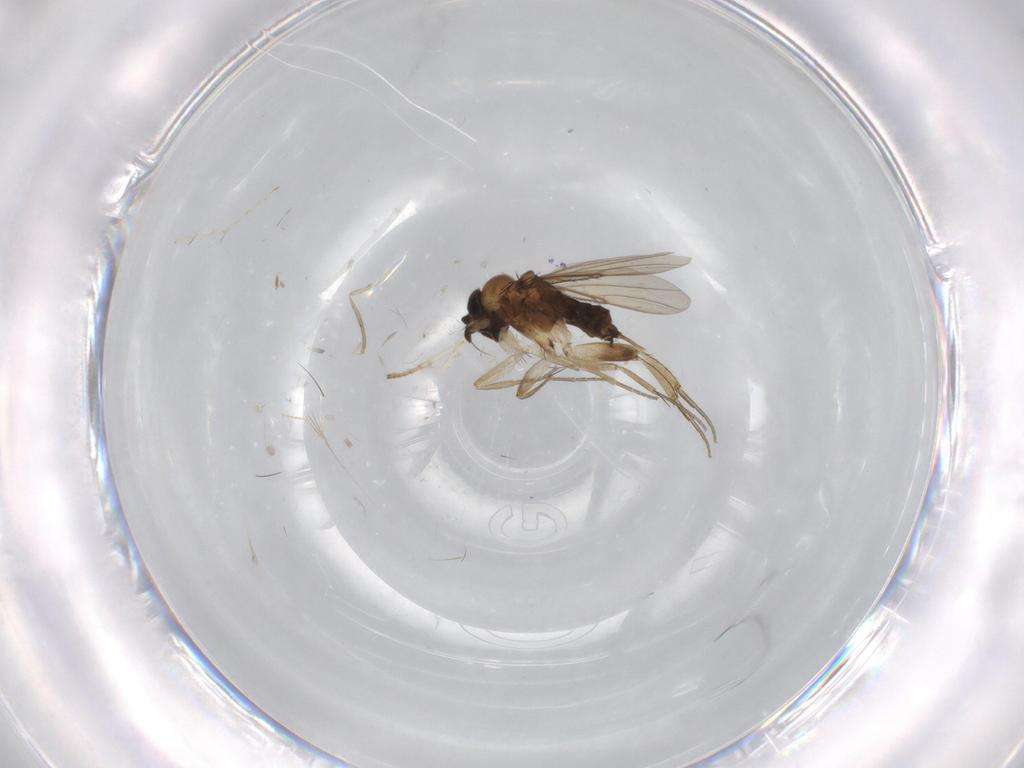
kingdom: Animalia
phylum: Arthropoda
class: Insecta
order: Diptera
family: Phoridae
